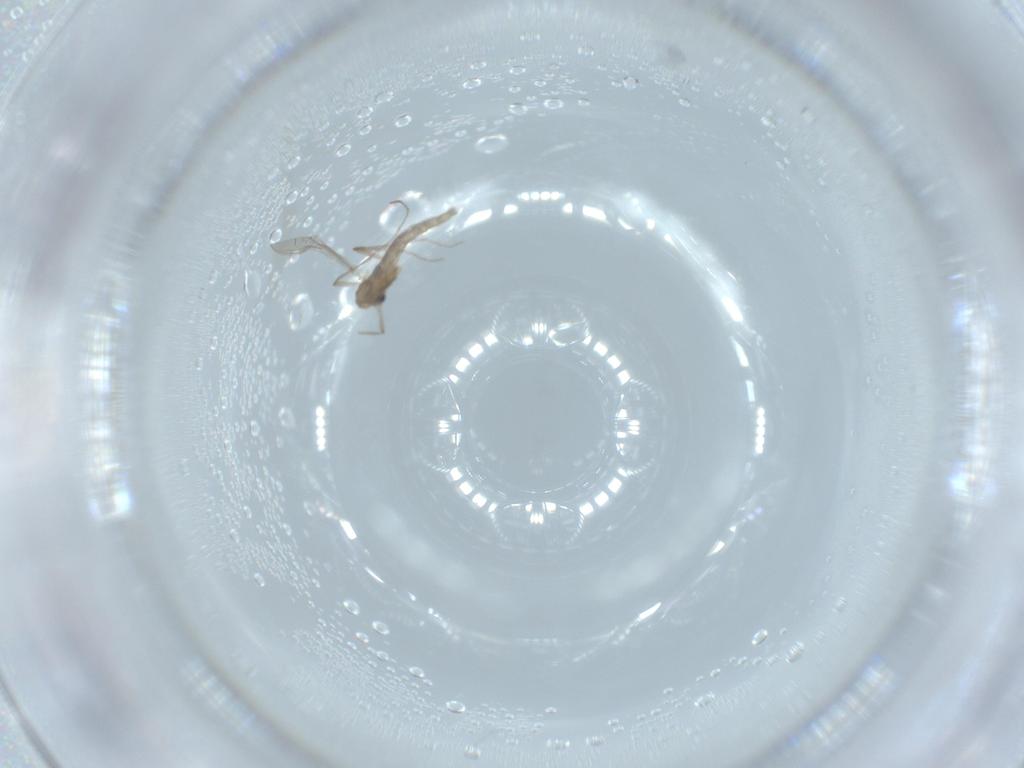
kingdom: Animalia
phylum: Arthropoda
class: Insecta
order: Diptera
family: Chironomidae
